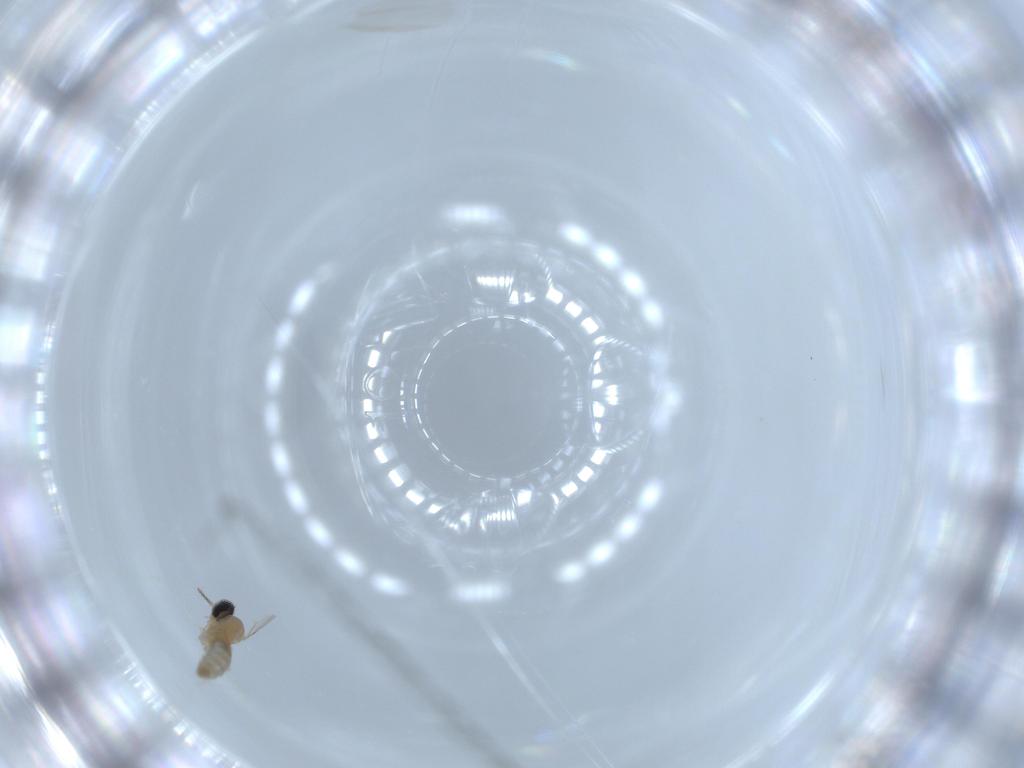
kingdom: Animalia
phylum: Arthropoda
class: Insecta
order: Diptera
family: Cecidomyiidae
